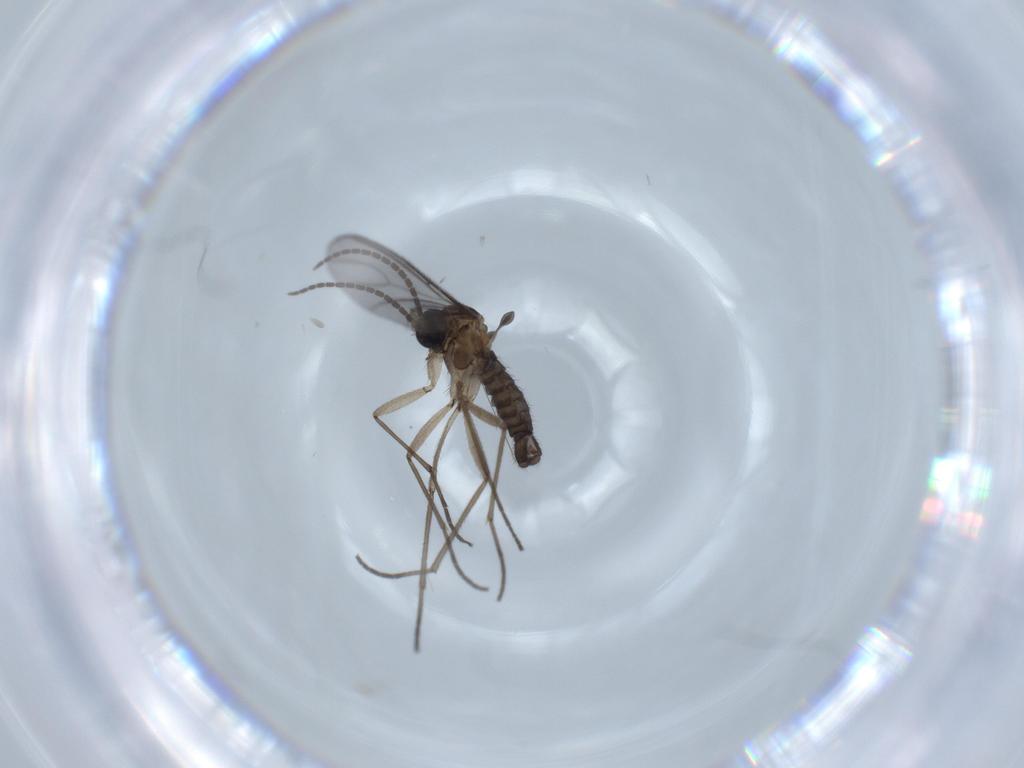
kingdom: Animalia
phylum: Arthropoda
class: Insecta
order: Diptera
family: Sciaridae
